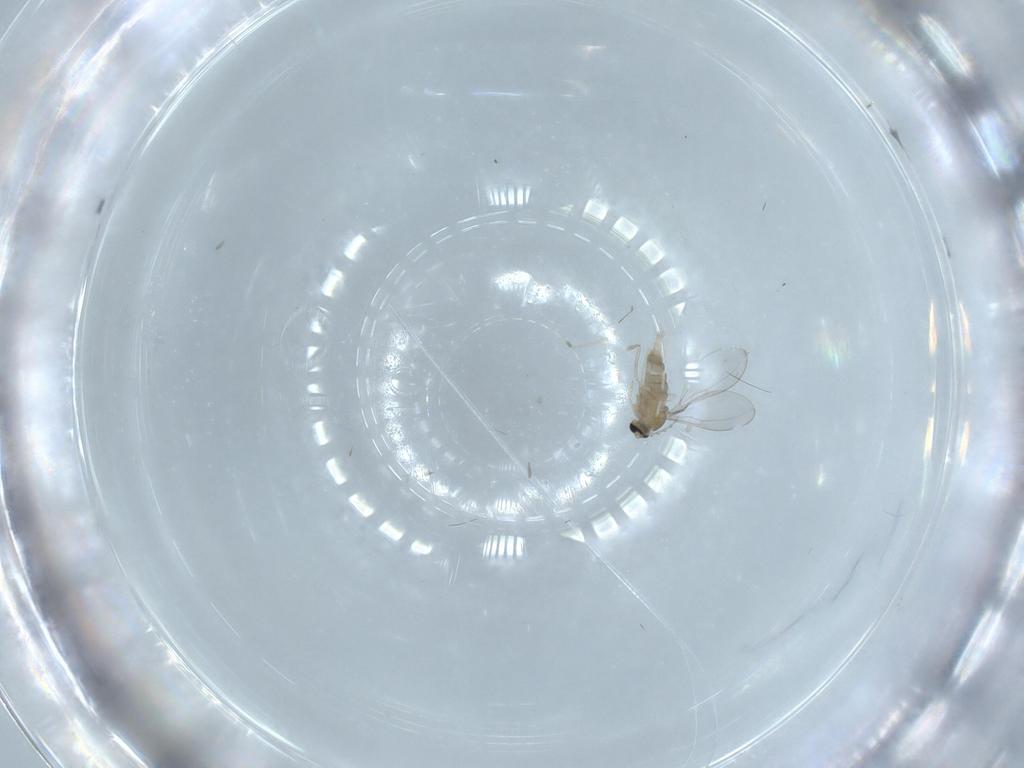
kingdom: Animalia
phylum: Arthropoda
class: Insecta
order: Diptera
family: Cecidomyiidae
